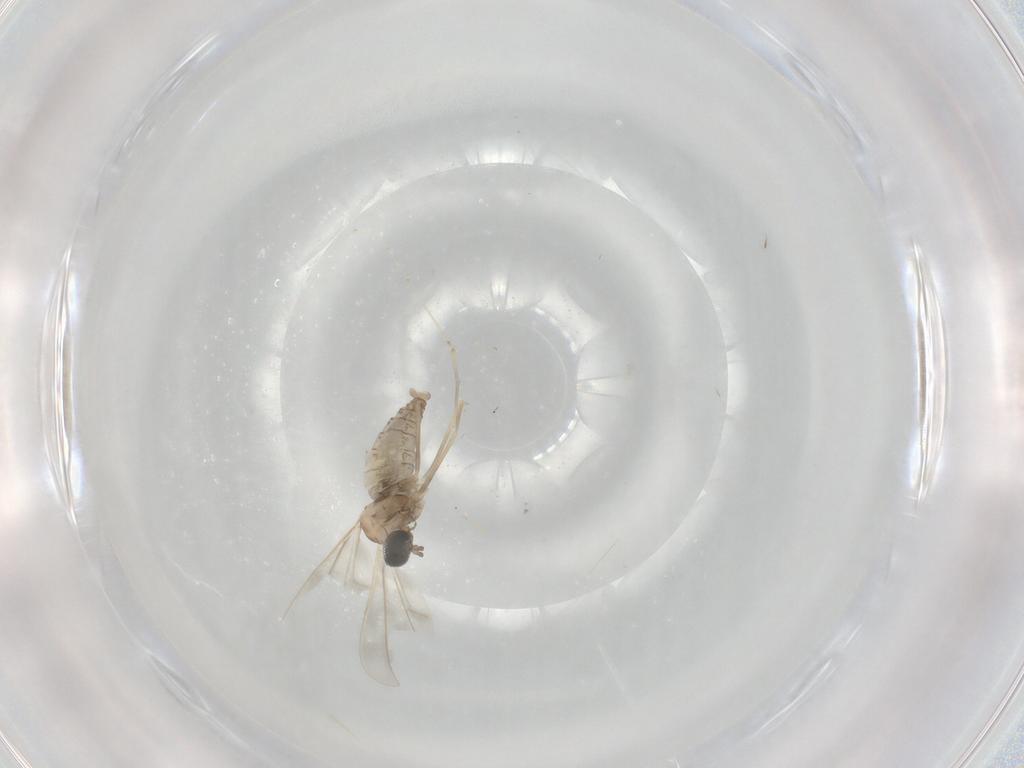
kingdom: Animalia
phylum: Arthropoda
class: Insecta
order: Diptera
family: Cecidomyiidae
